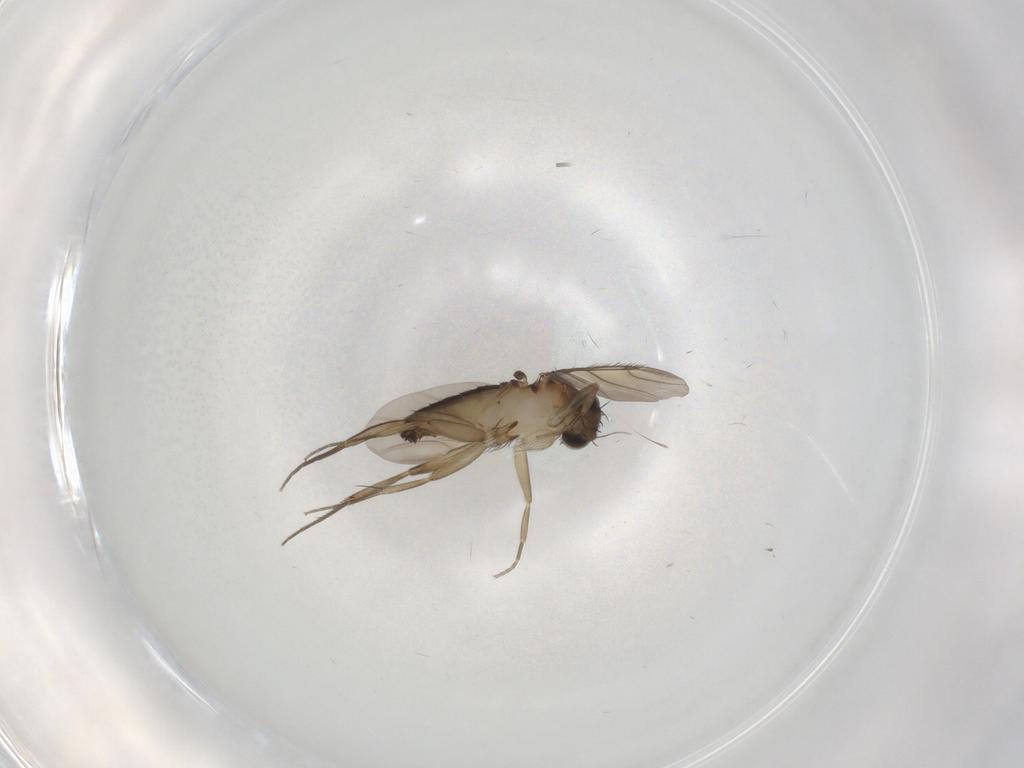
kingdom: Animalia
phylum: Arthropoda
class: Insecta
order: Diptera
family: Phoridae
